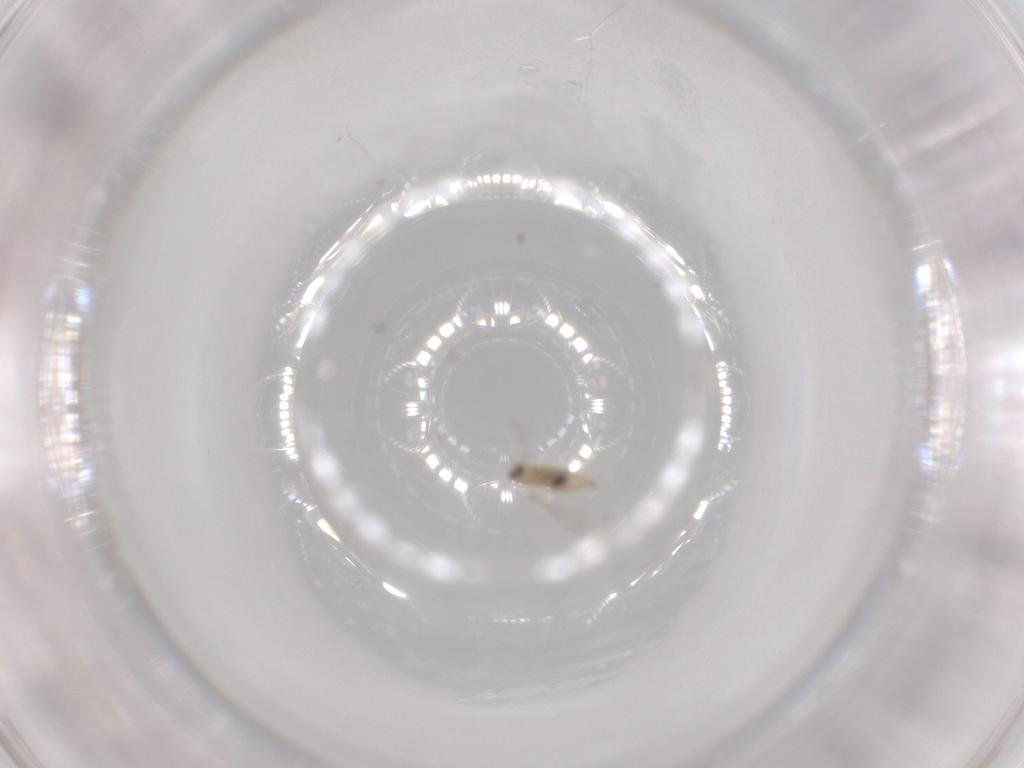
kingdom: Animalia
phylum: Arthropoda
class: Insecta
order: Diptera
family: Cecidomyiidae
